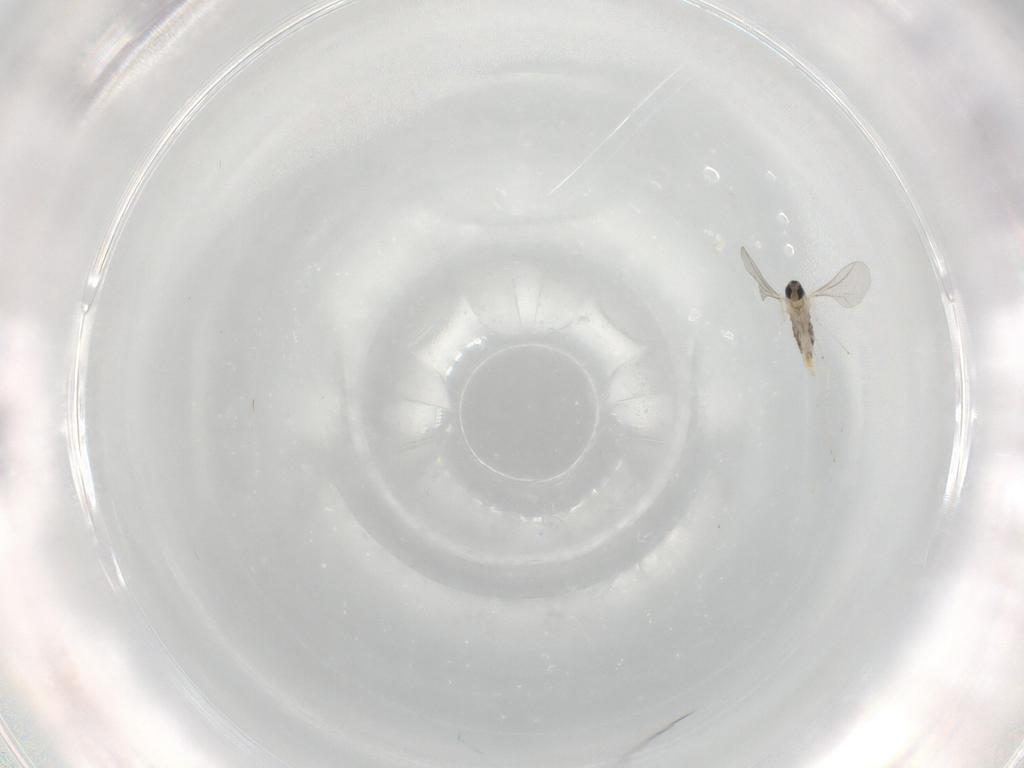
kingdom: Animalia
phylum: Arthropoda
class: Insecta
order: Diptera
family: Cecidomyiidae
